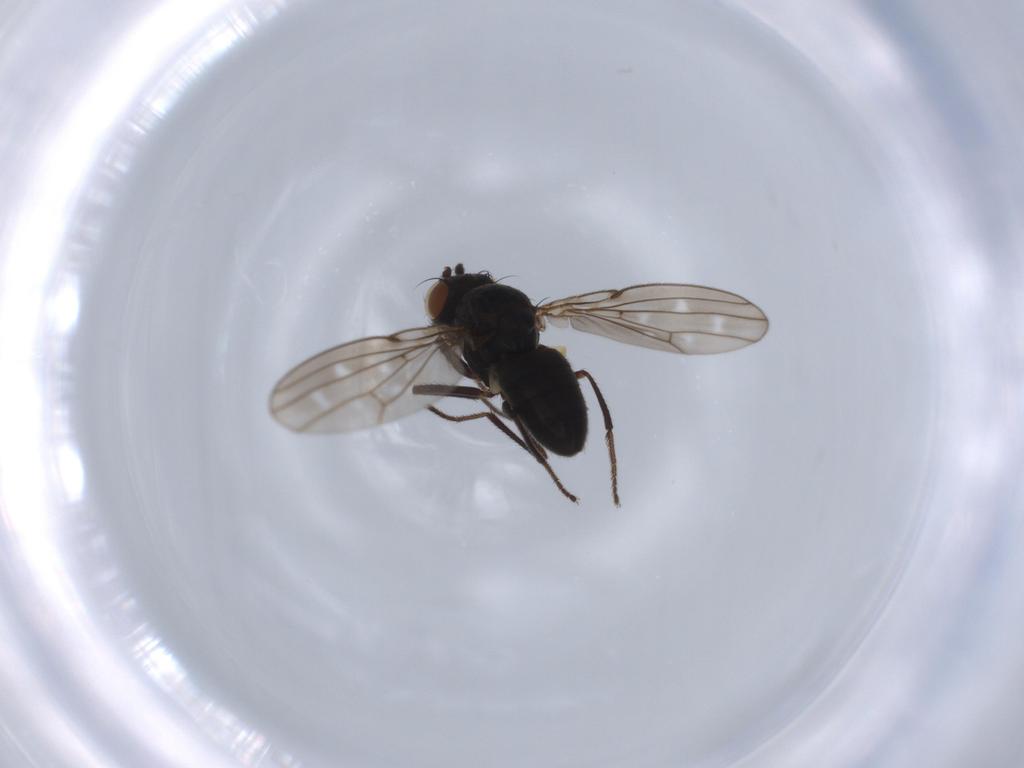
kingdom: Animalia
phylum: Arthropoda
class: Insecta
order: Diptera
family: Ephydridae
